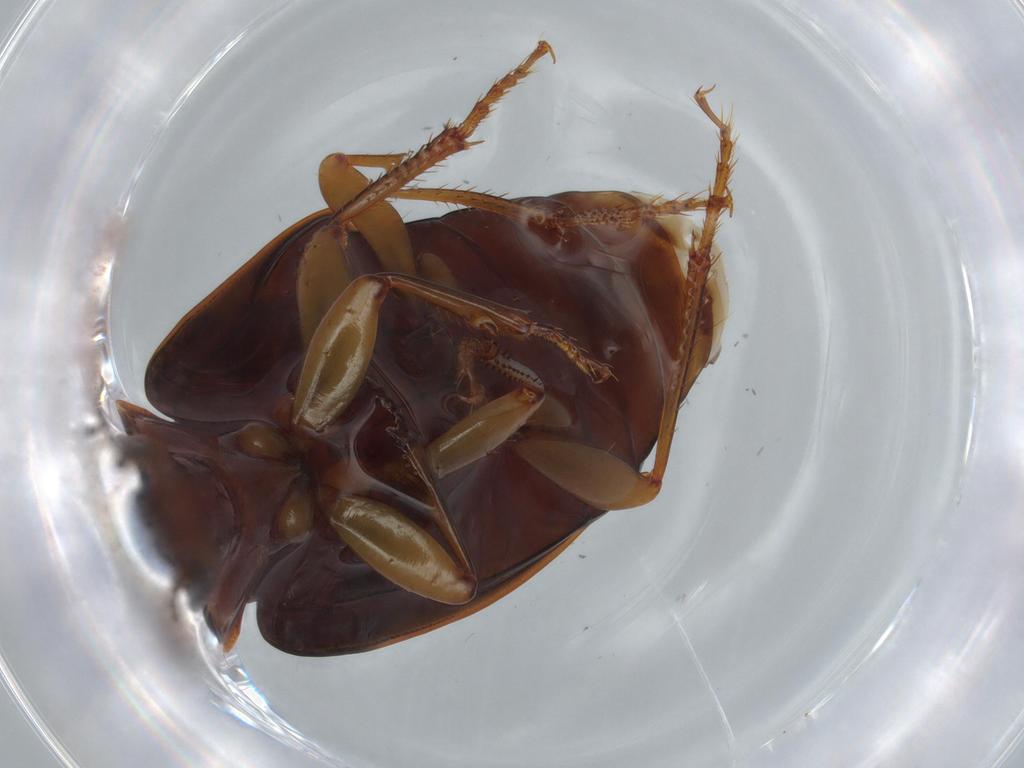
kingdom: Animalia
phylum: Arthropoda
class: Insecta
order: Coleoptera
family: Carabidae
